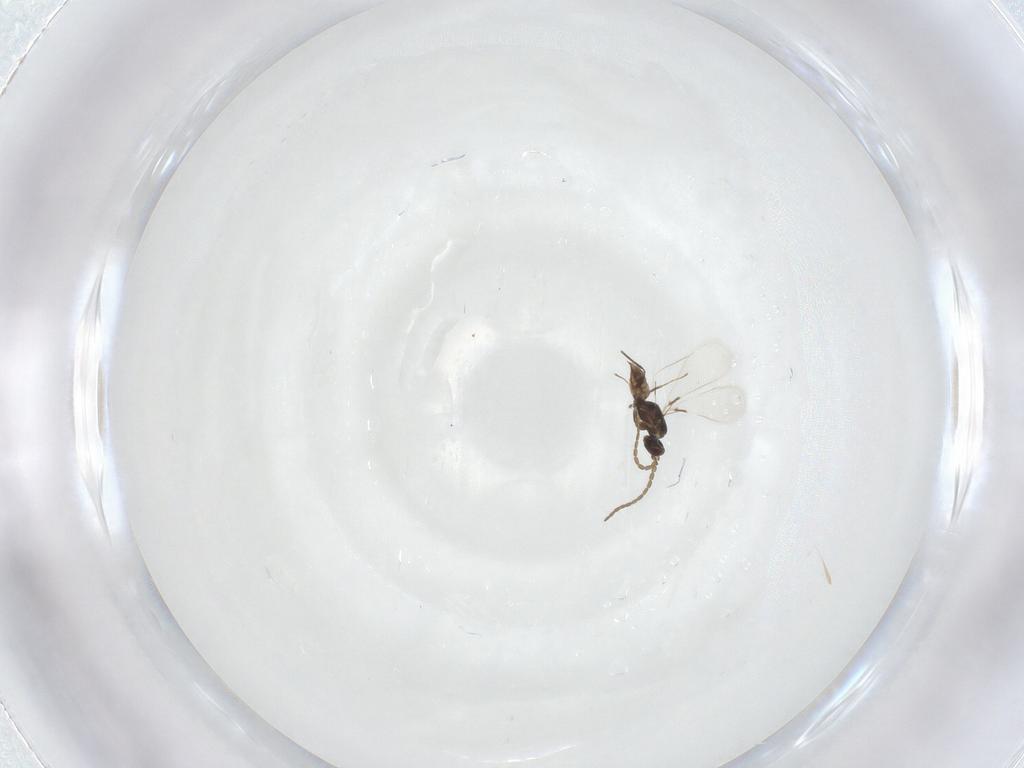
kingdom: Animalia
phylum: Arthropoda
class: Insecta
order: Hymenoptera
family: Mymaridae
